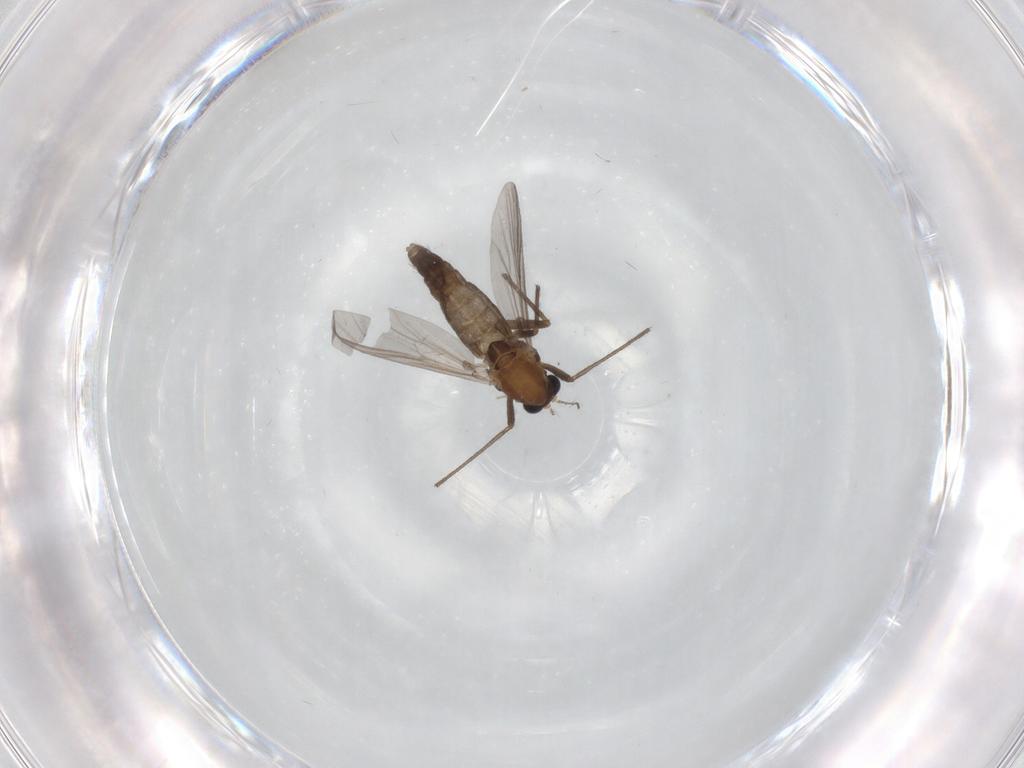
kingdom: Animalia
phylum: Arthropoda
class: Insecta
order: Diptera
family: Chironomidae
